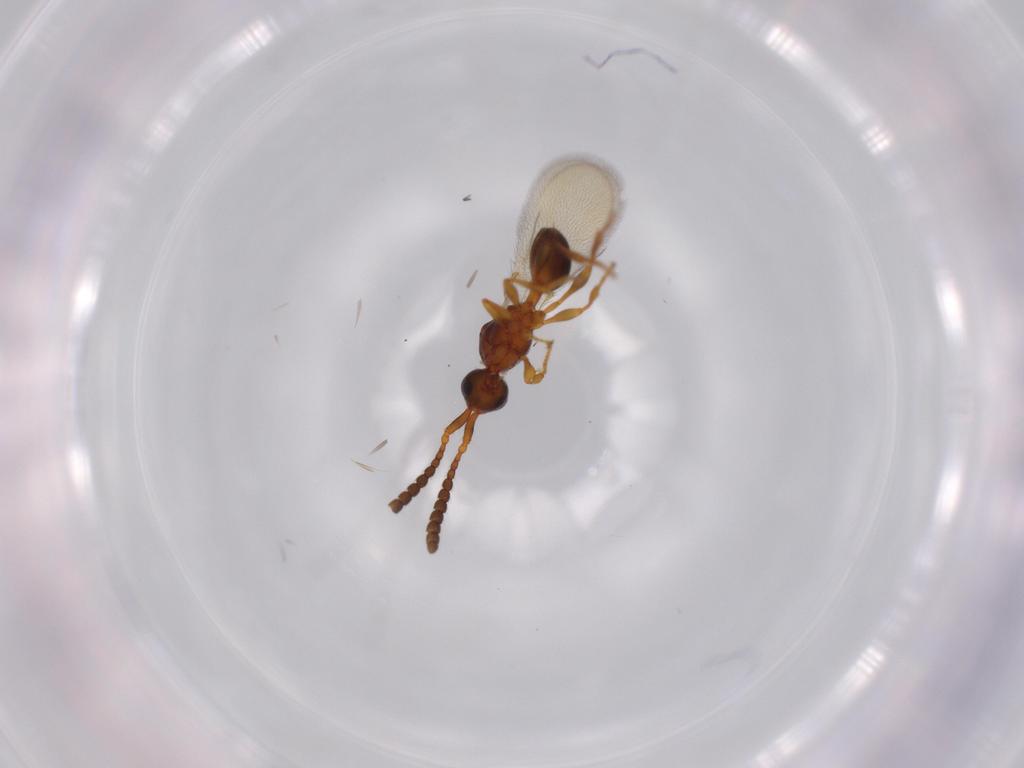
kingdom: Animalia
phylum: Arthropoda
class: Insecta
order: Hymenoptera
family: Diapriidae
